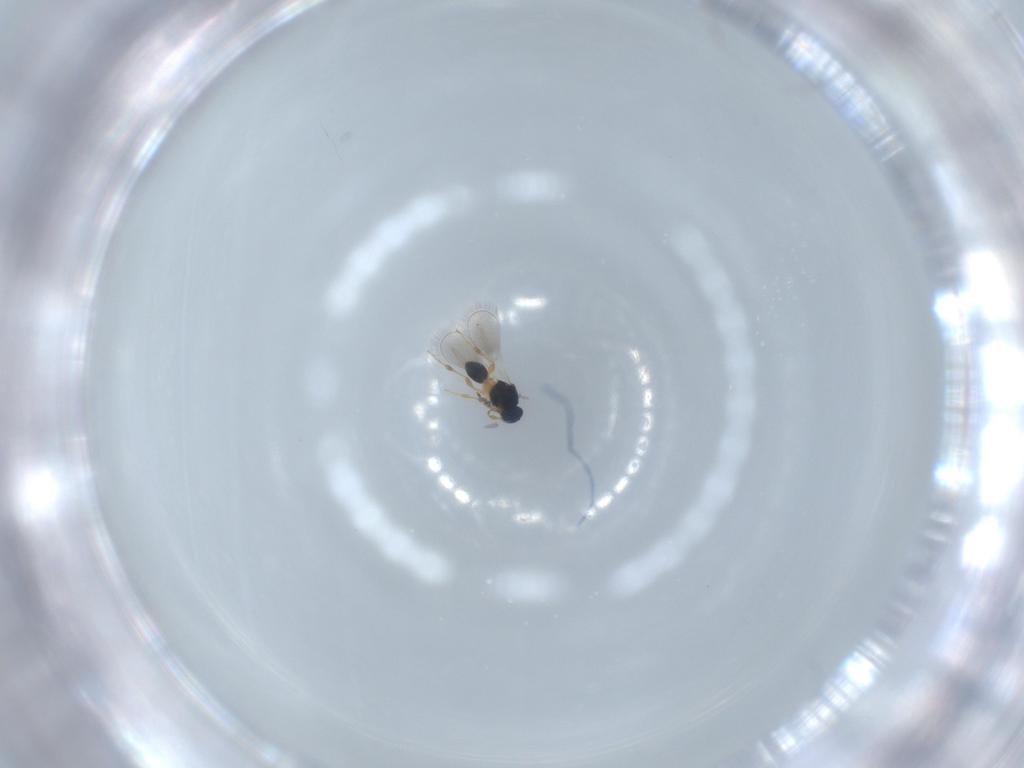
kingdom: Animalia
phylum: Arthropoda
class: Insecta
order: Hymenoptera
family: Platygastridae
